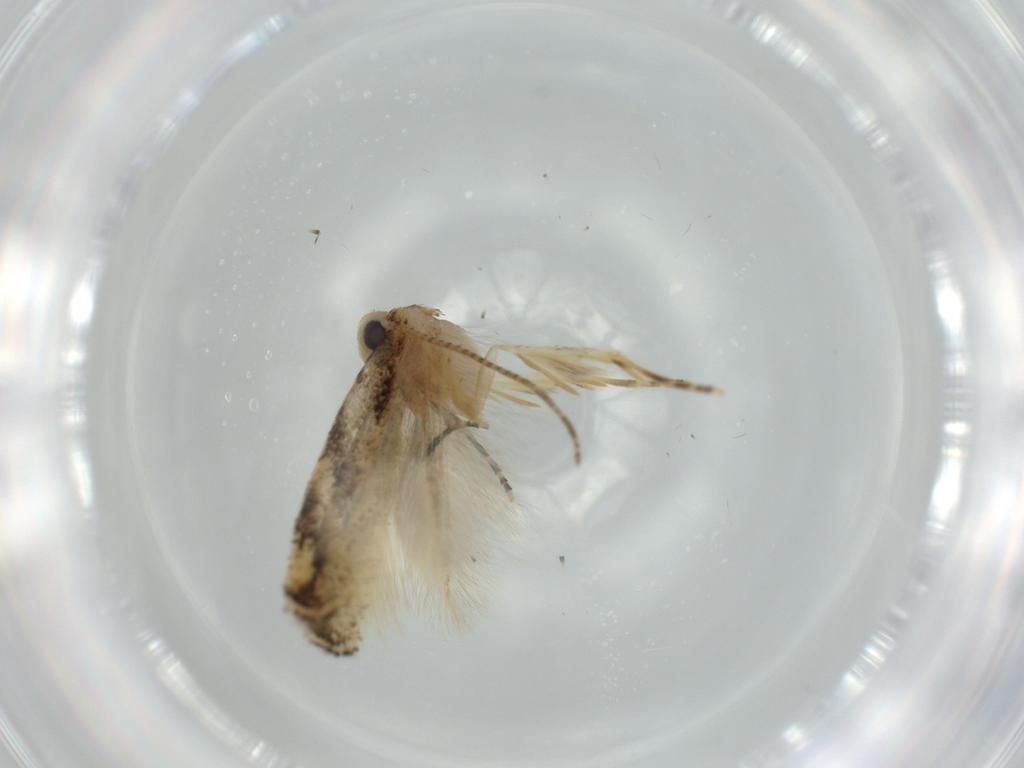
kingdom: Animalia
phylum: Arthropoda
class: Insecta
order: Lepidoptera
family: Bucculatricidae
